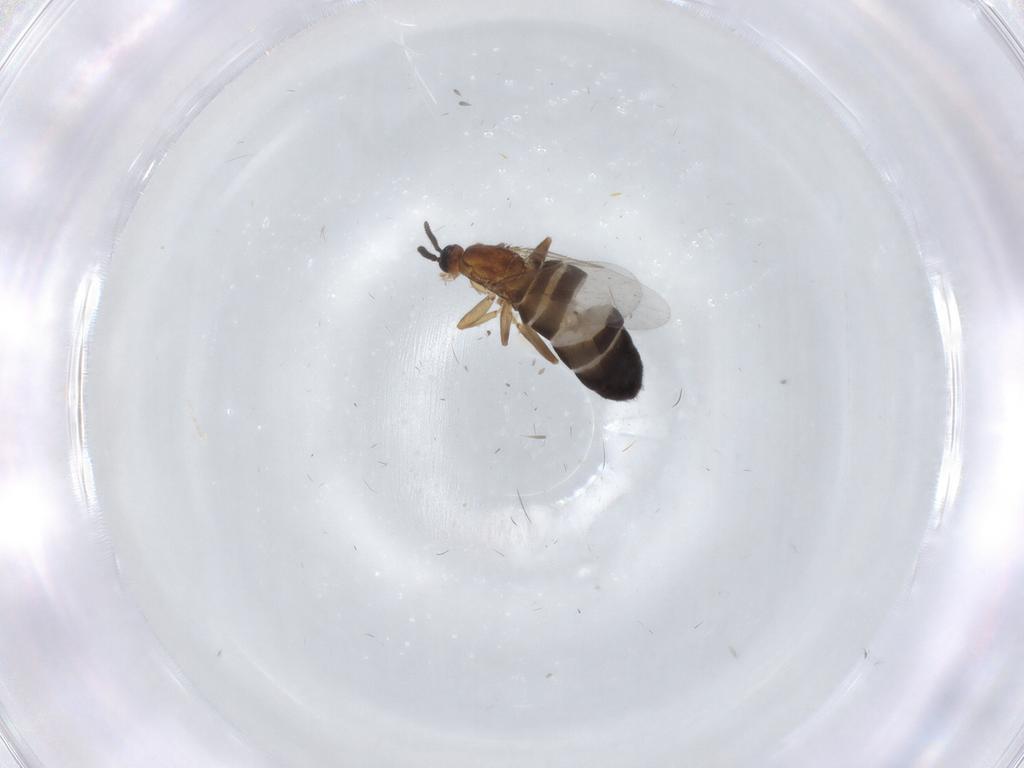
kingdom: Animalia
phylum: Arthropoda
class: Insecta
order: Diptera
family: Scatopsidae
